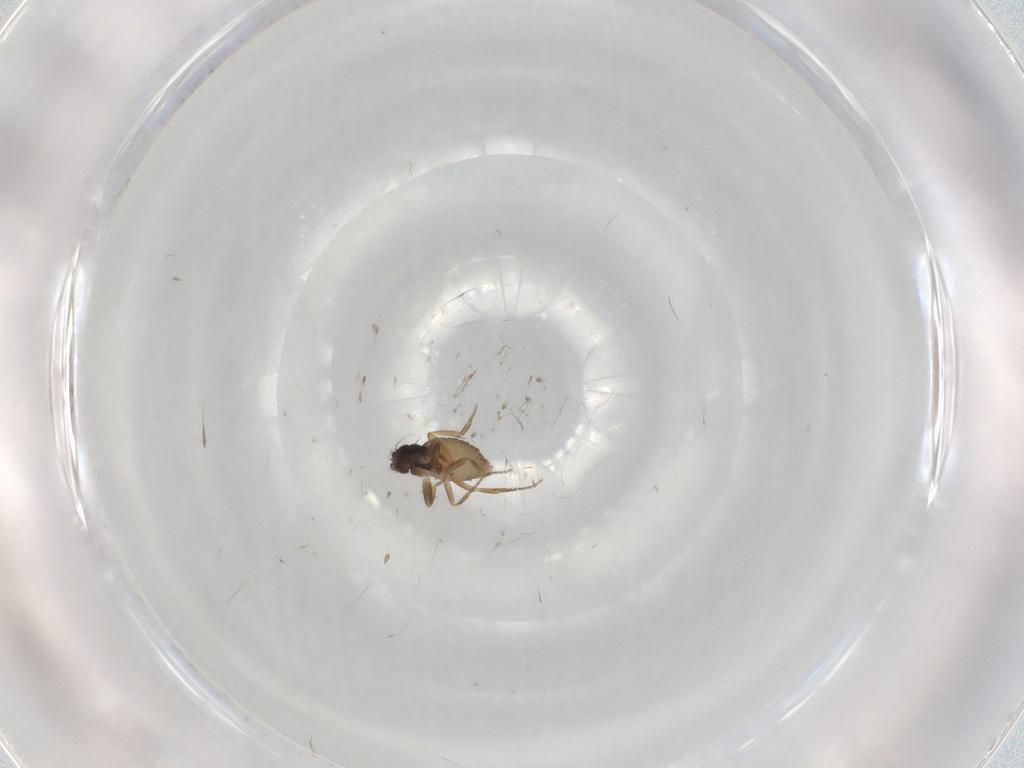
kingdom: Animalia
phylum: Arthropoda
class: Insecta
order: Diptera
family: Phoridae
